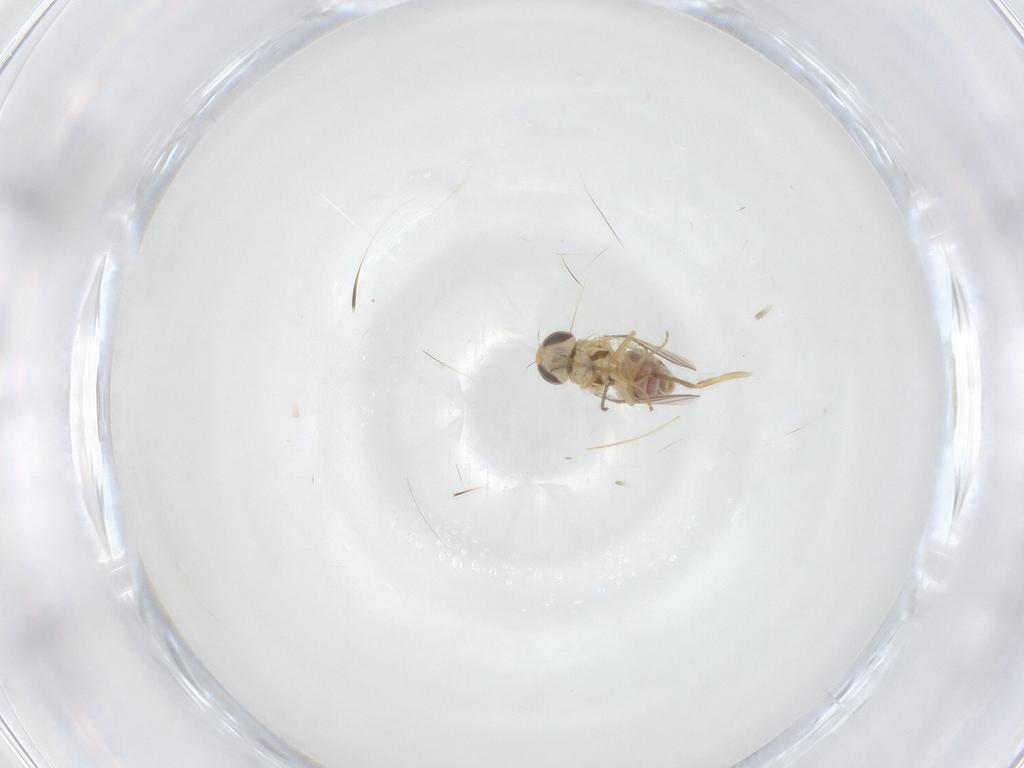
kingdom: Animalia
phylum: Arthropoda
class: Insecta
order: Diptera
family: Chyromyidae
